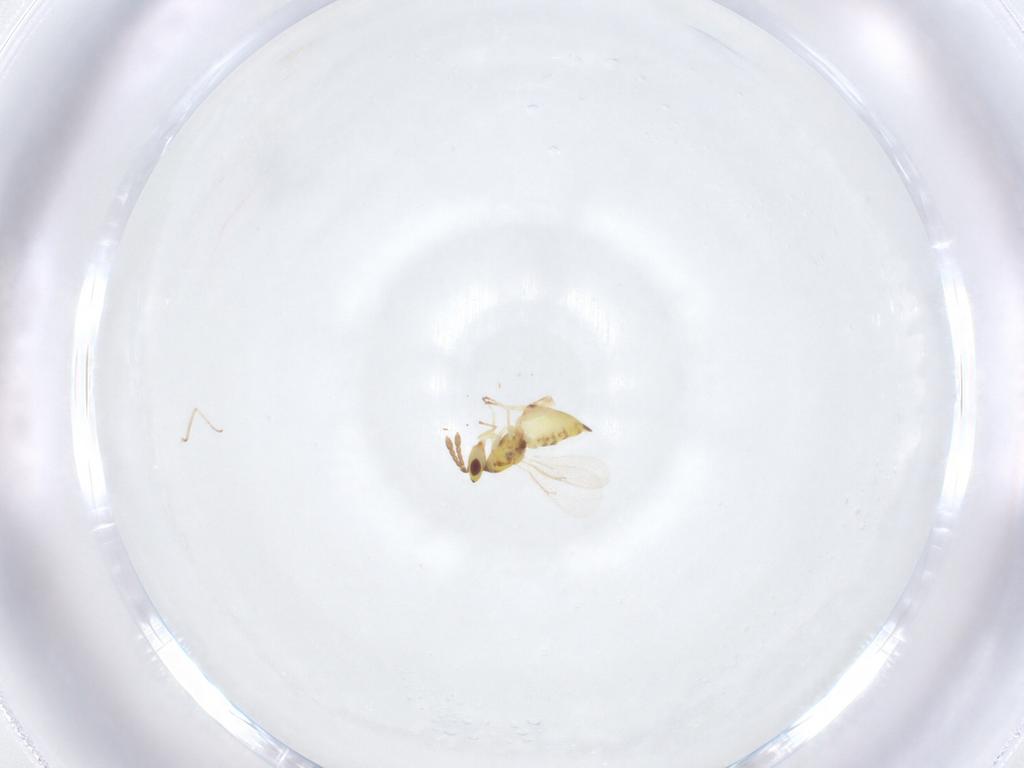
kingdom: Animalia
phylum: Arthropoda
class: Insecta
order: Hymenoptera
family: Eulophidae
